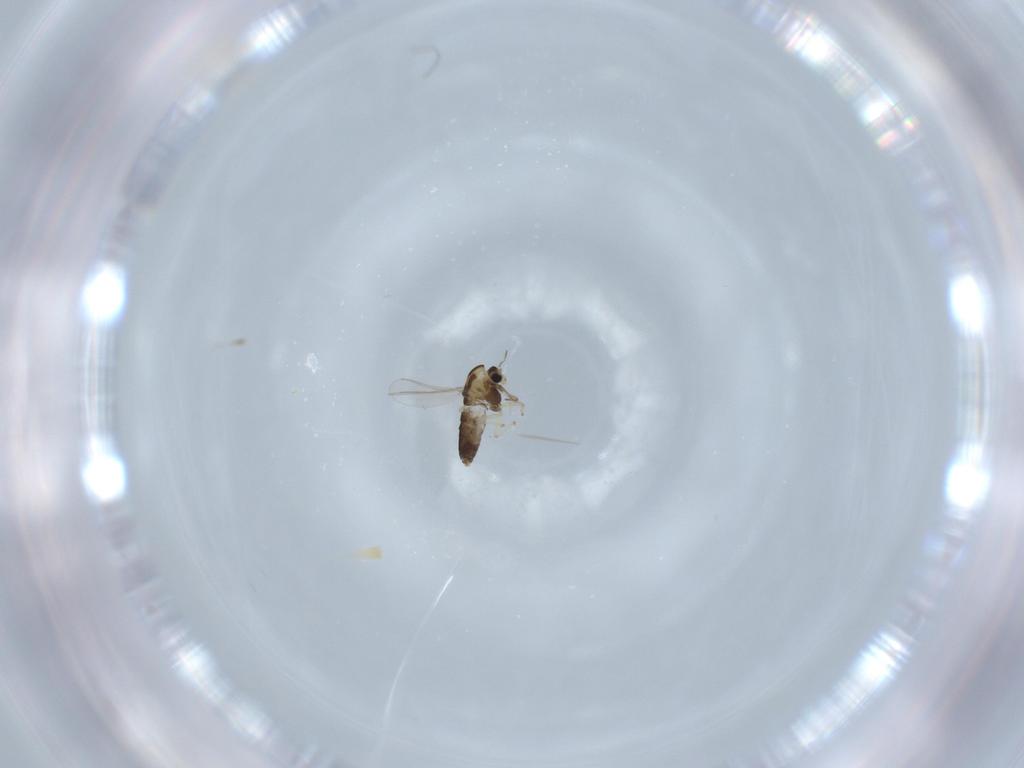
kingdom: Animalia
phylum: Arthropoda
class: Insecta
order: Diptera
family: Chironomidae
